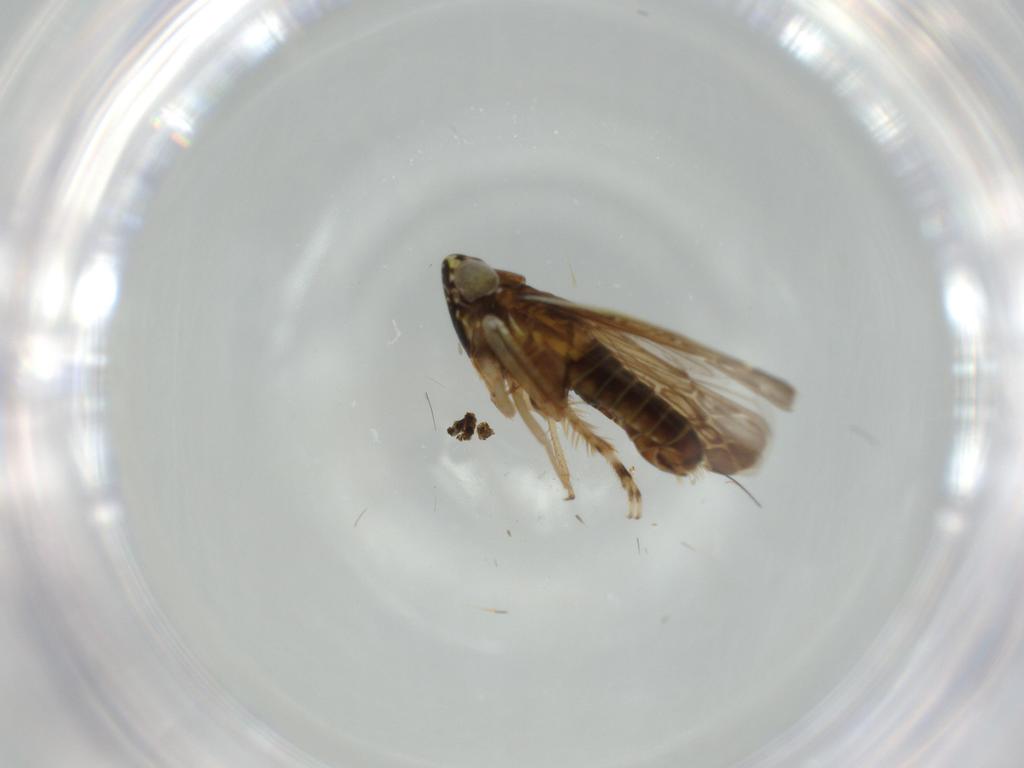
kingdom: Animalia
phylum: Arthropoda
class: Insecta
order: Hemiptera
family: Cicadellidae
